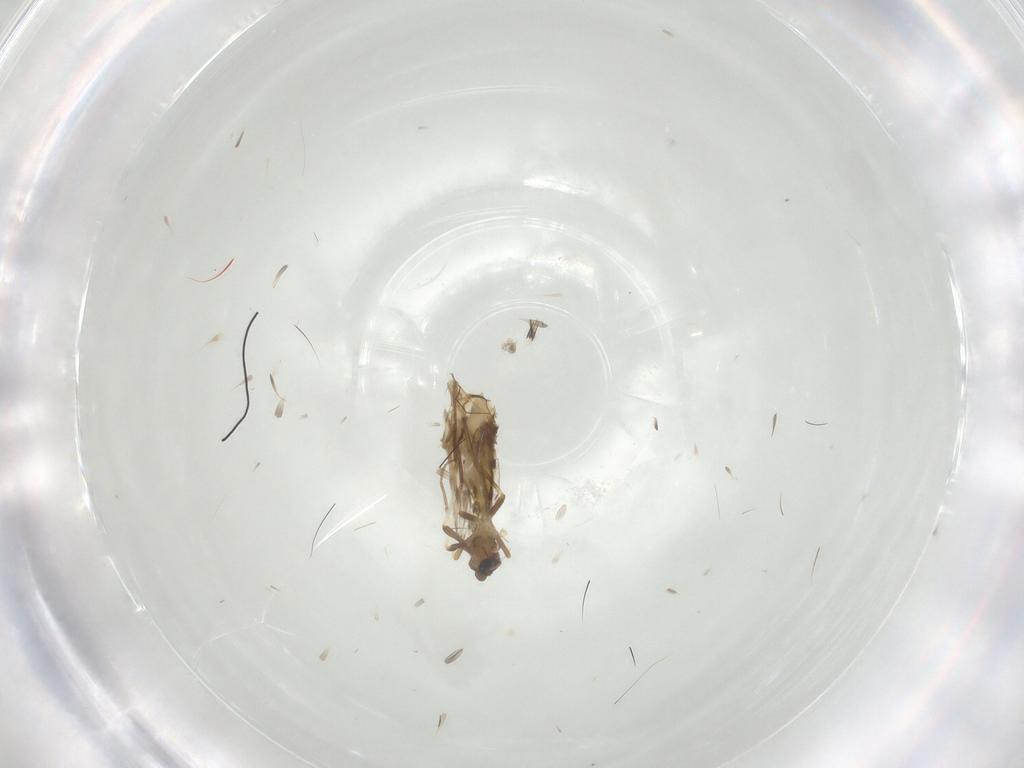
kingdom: Animalia
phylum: Arthropoda
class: Insecta
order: Diptera
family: Chironomidae
